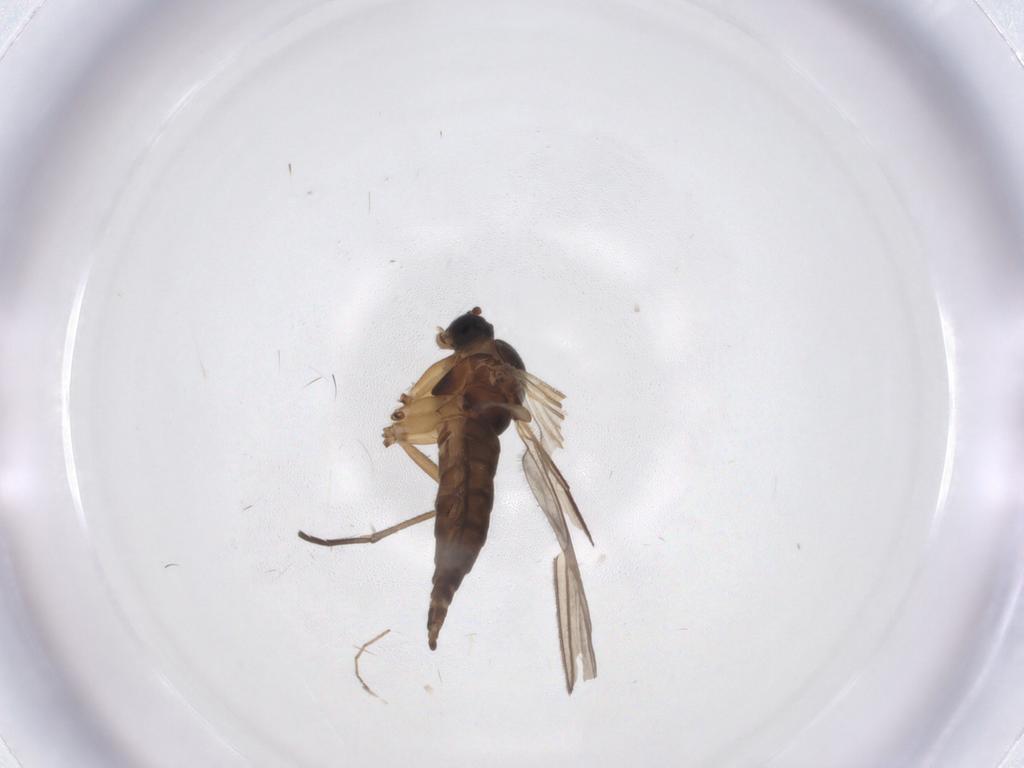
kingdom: Animalia
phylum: Arthropoda
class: Insecta
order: Diptera
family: Sciaridae
